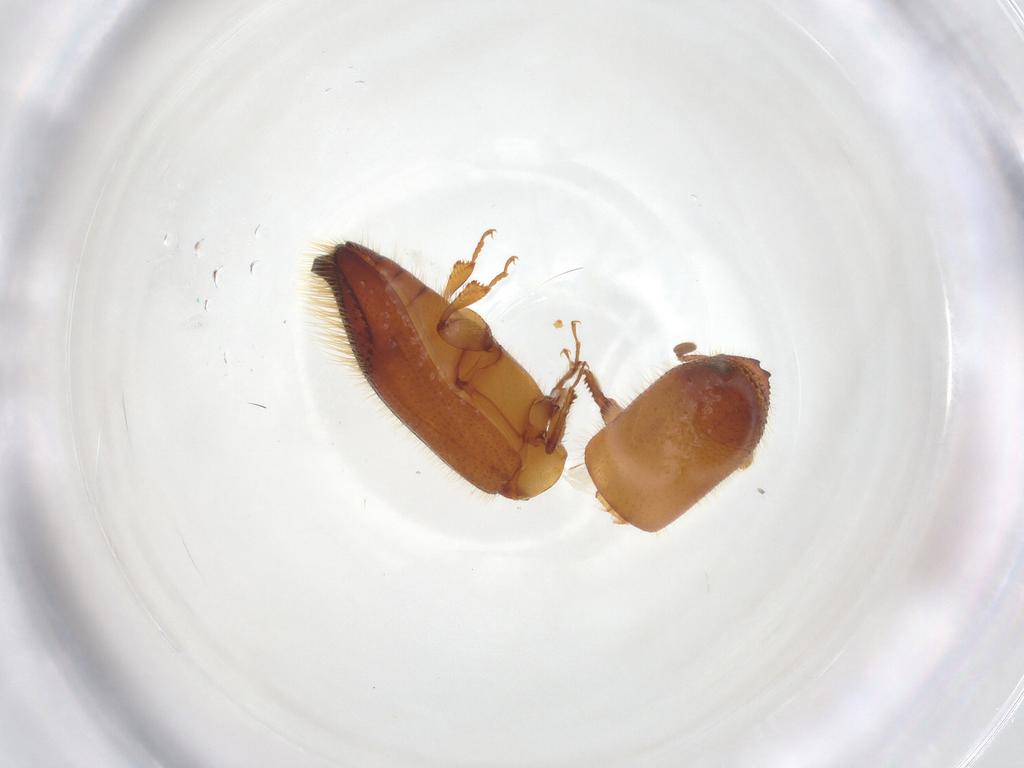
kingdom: Animalia
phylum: Arthropoda
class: Insecta
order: Coleoptera
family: Curculionidae
